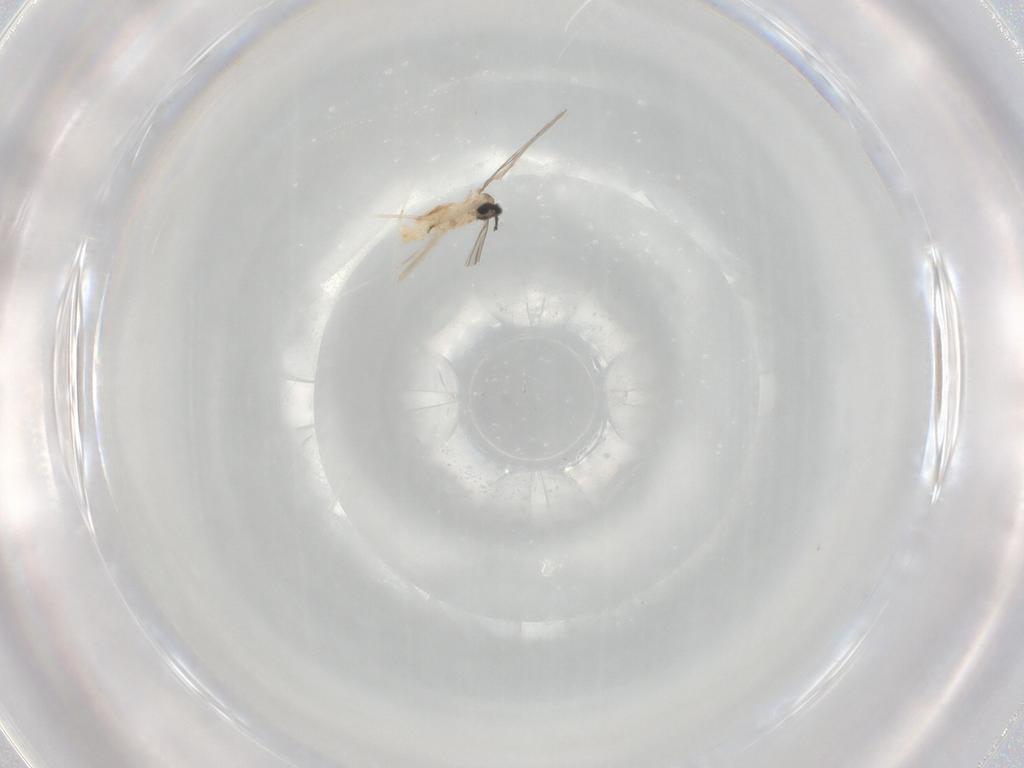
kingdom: Animalia
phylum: Arthropoda
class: Insecta
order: Diptera
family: Cecidomyiidae
